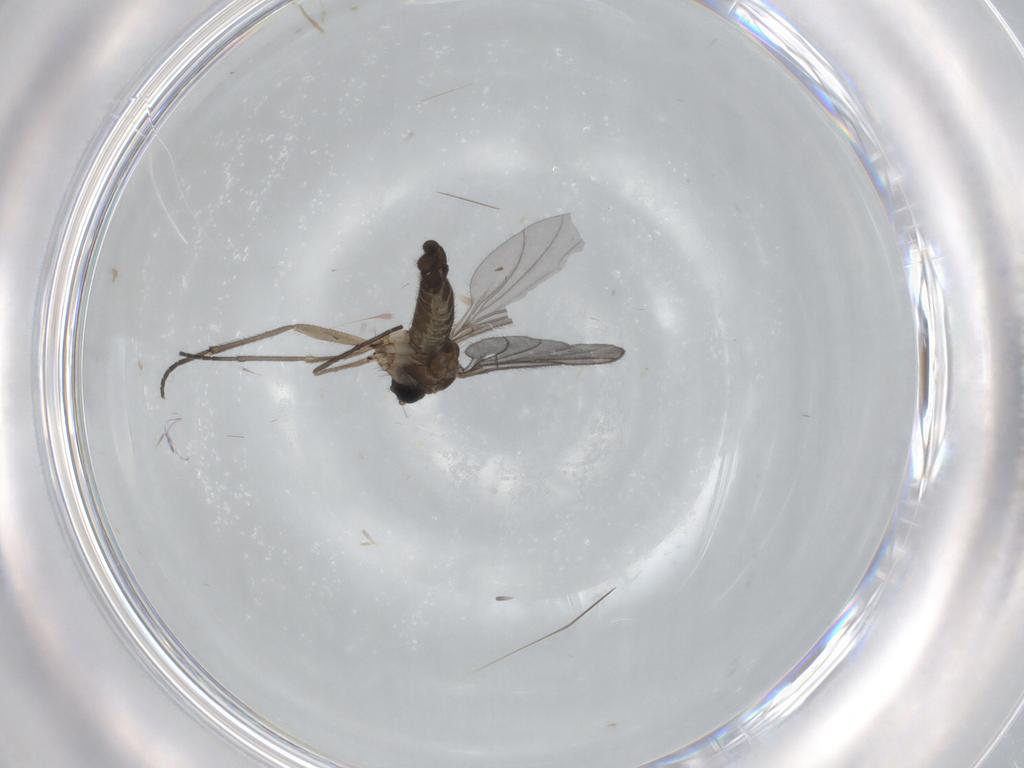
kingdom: Animalia
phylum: Arthropoda
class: Insecta
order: Diptera
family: Sciaridae
